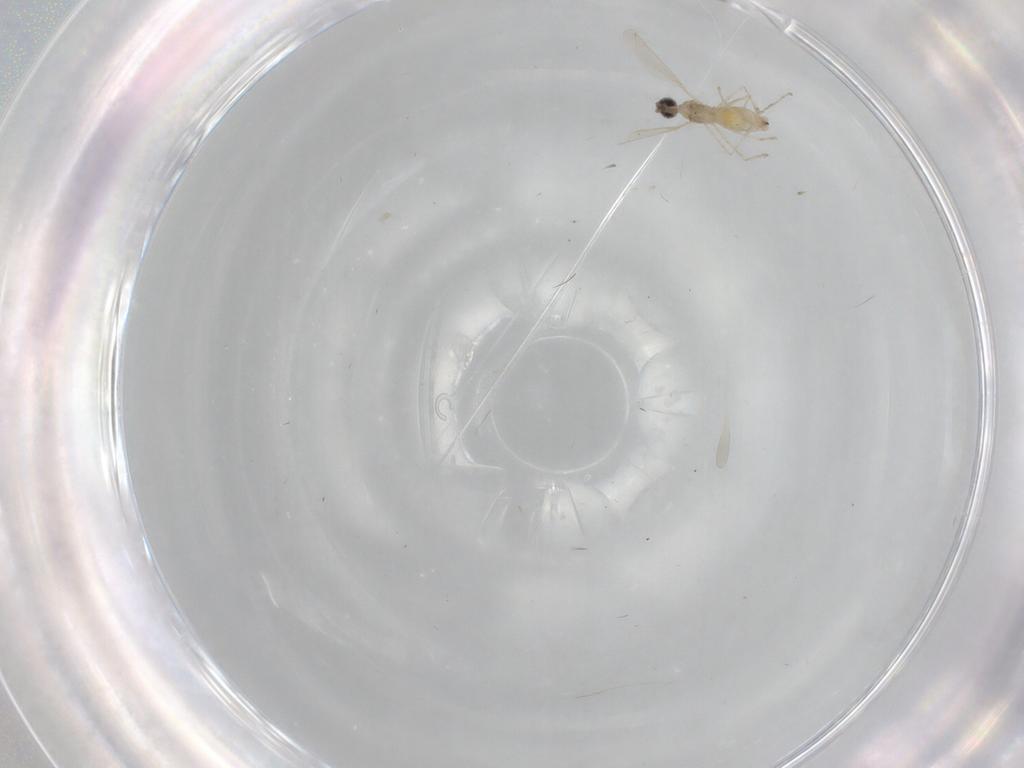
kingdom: Animalia
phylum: Arthropoda
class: Insecta
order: Diptera
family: Cecidomyiidae
